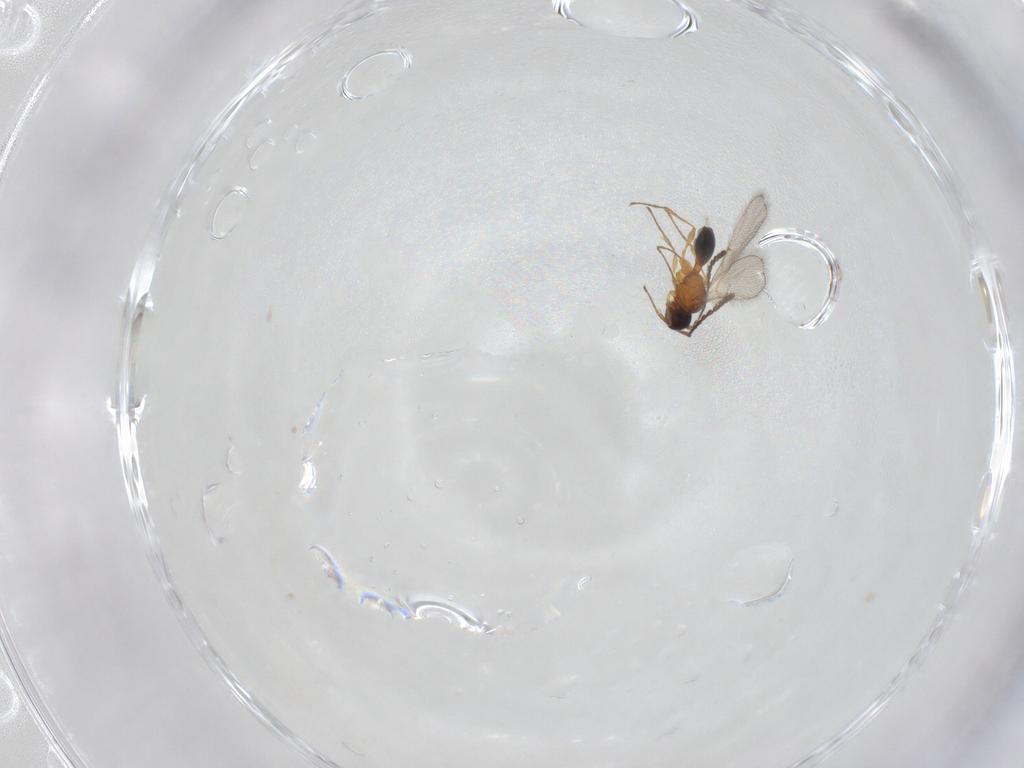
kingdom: Animalia
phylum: Arthropoda
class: Insecta
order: Hymenoptera
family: Diapriidae
